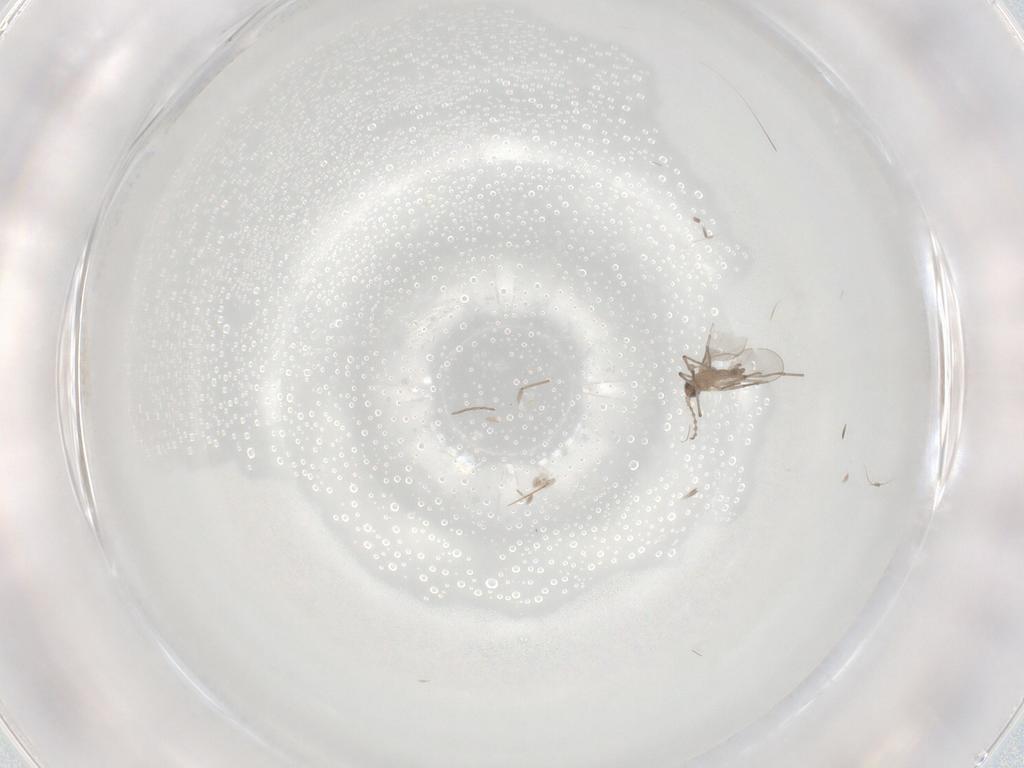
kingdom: Animalia
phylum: Arthropoda
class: Insecta
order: Diptera
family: Cecidomyiidae
